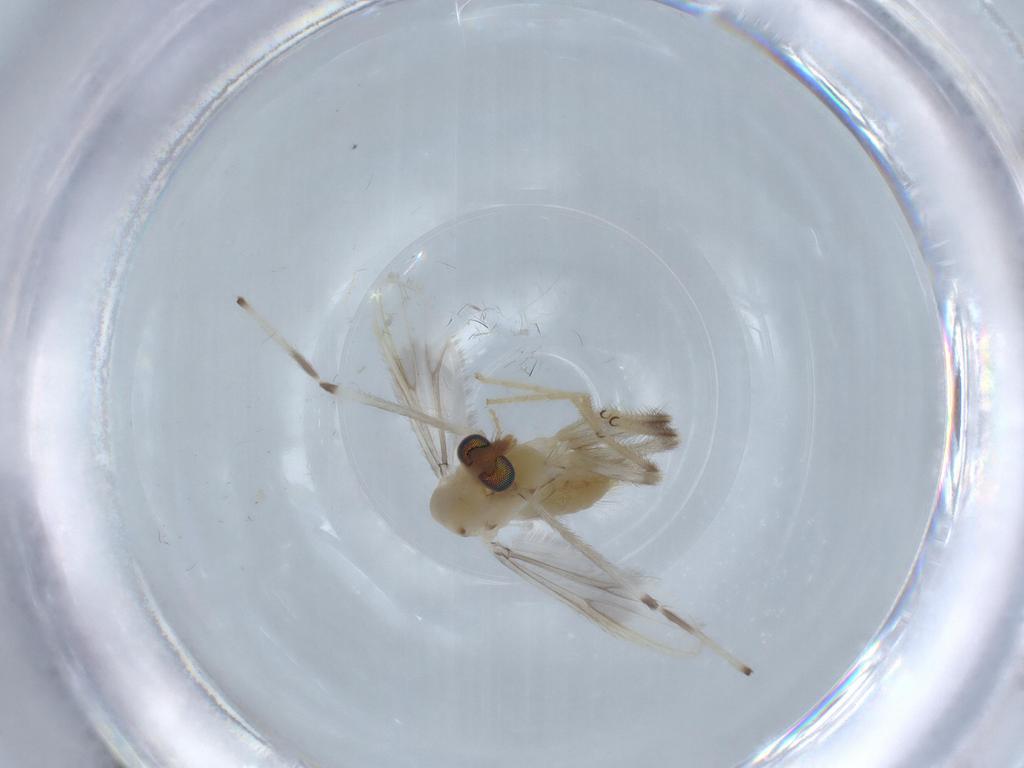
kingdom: Animalia
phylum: Arthropoda
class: Insecta
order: Diptera
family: Chironomidae
